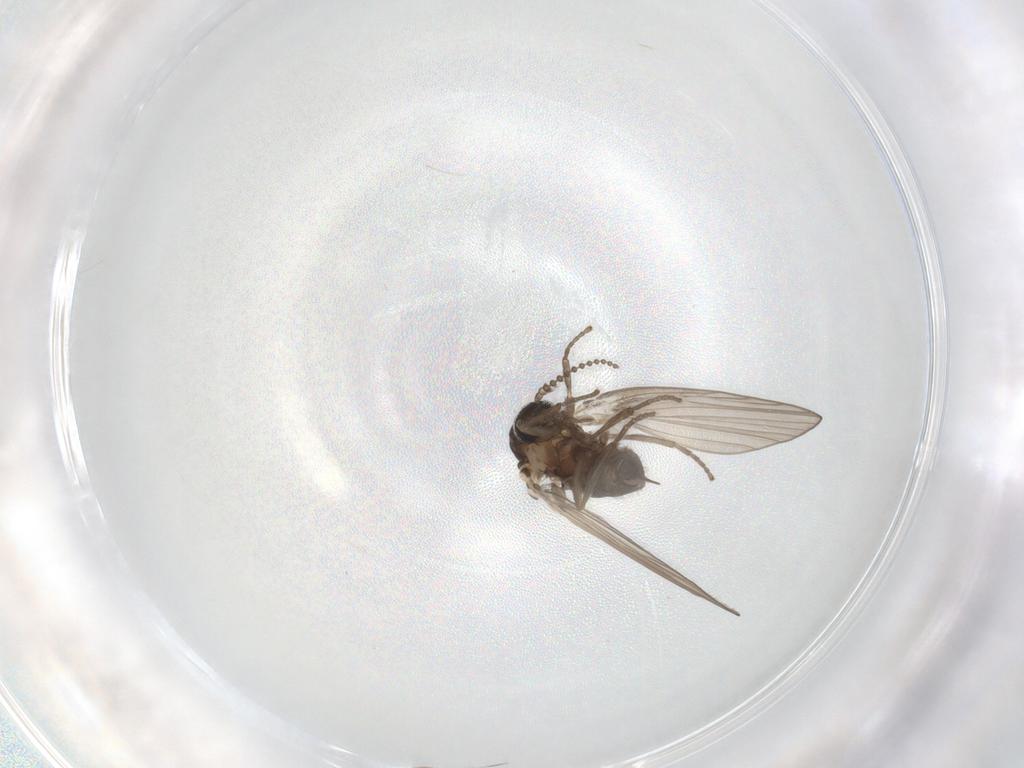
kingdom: Animalia
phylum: Arthropoda
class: Insecta
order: Diptera
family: Psychodidae
